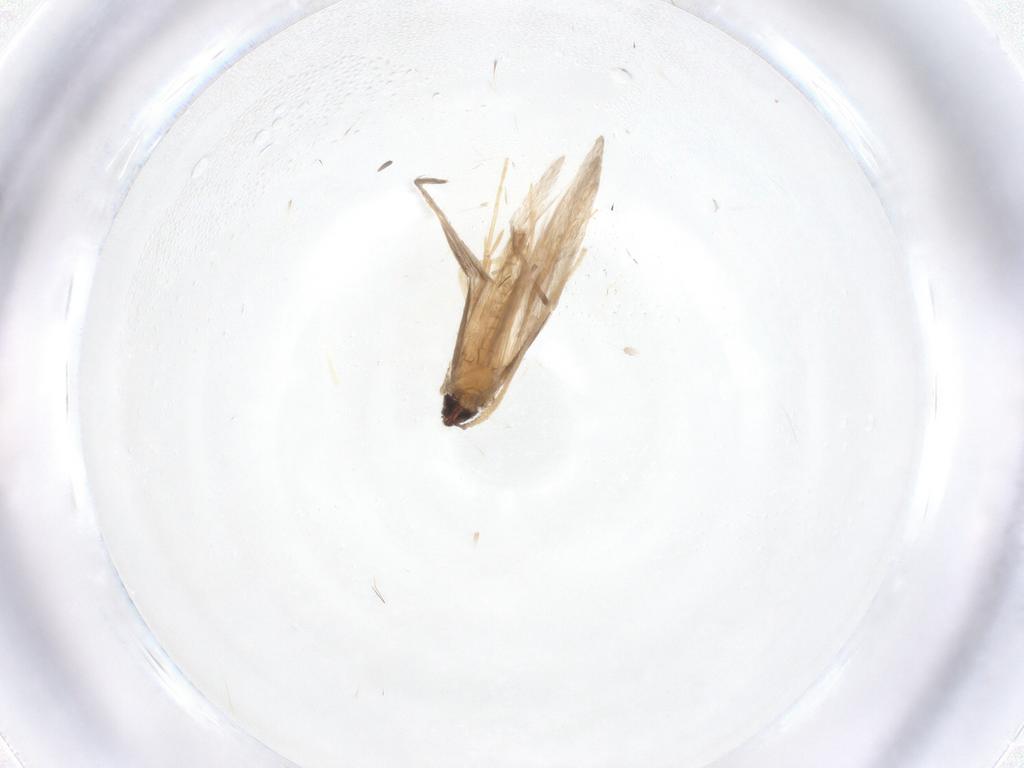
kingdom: Animalia
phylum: Arthropoda
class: Insecta
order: Trichoptera
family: Hydroptilidae
